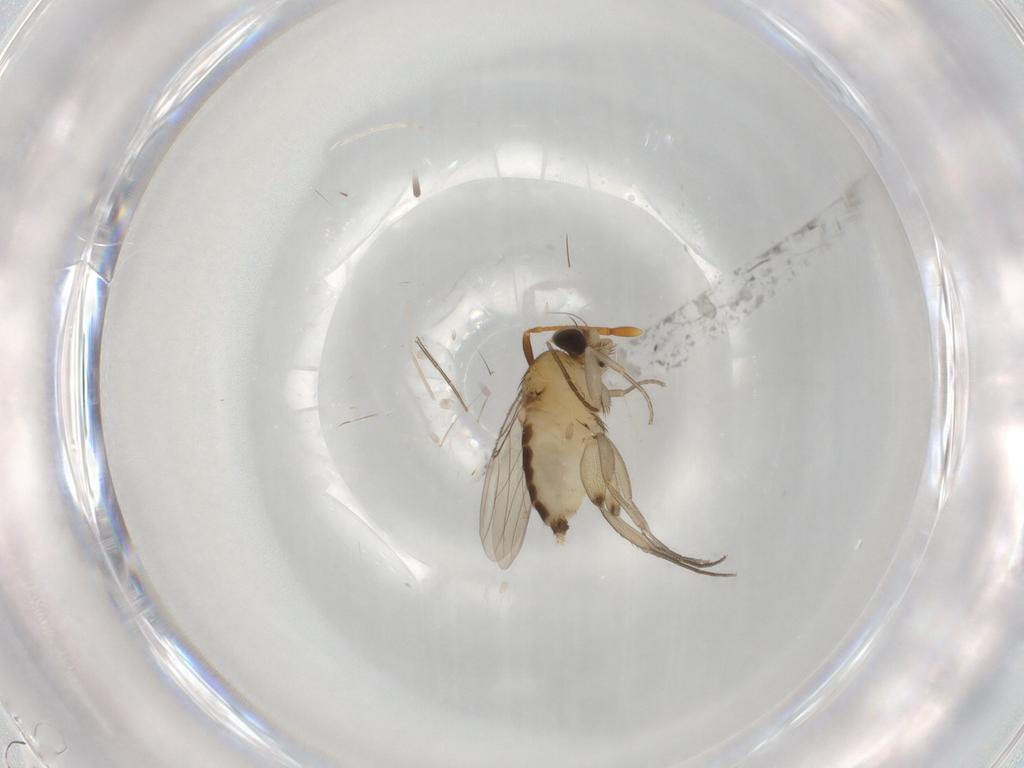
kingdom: Animalia
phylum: Arthropoda
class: Insecta
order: Diptera
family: Phoridae
